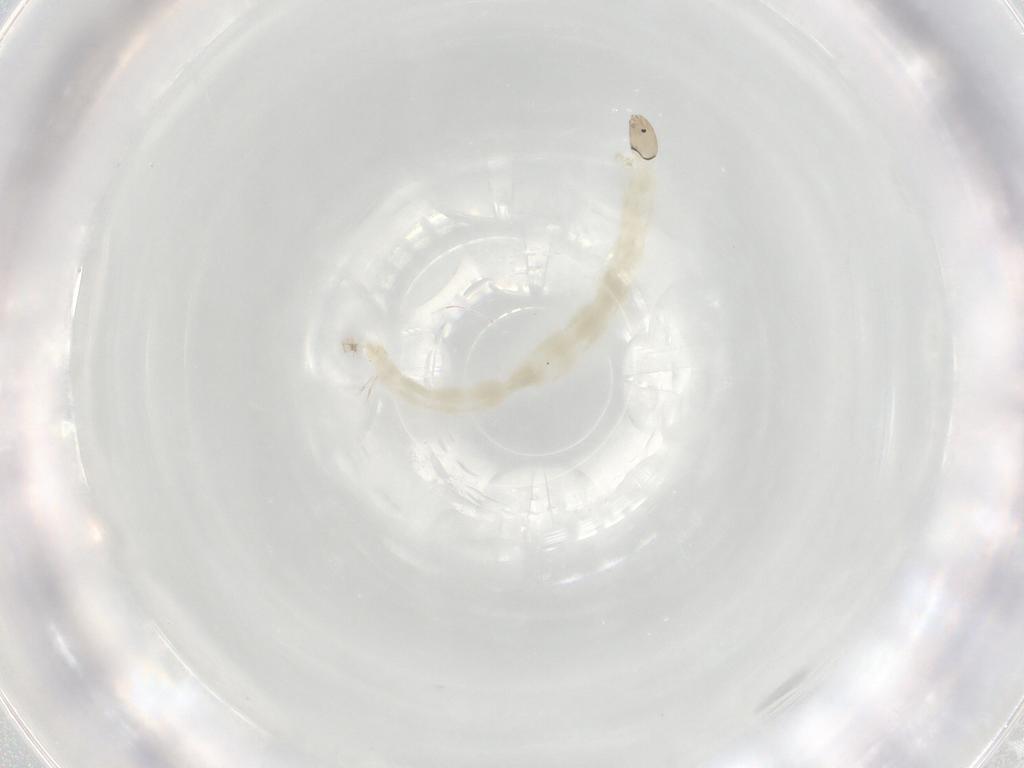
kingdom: Animalia
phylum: Arthropoda
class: Insecta
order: Diptera
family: Chironomidae
